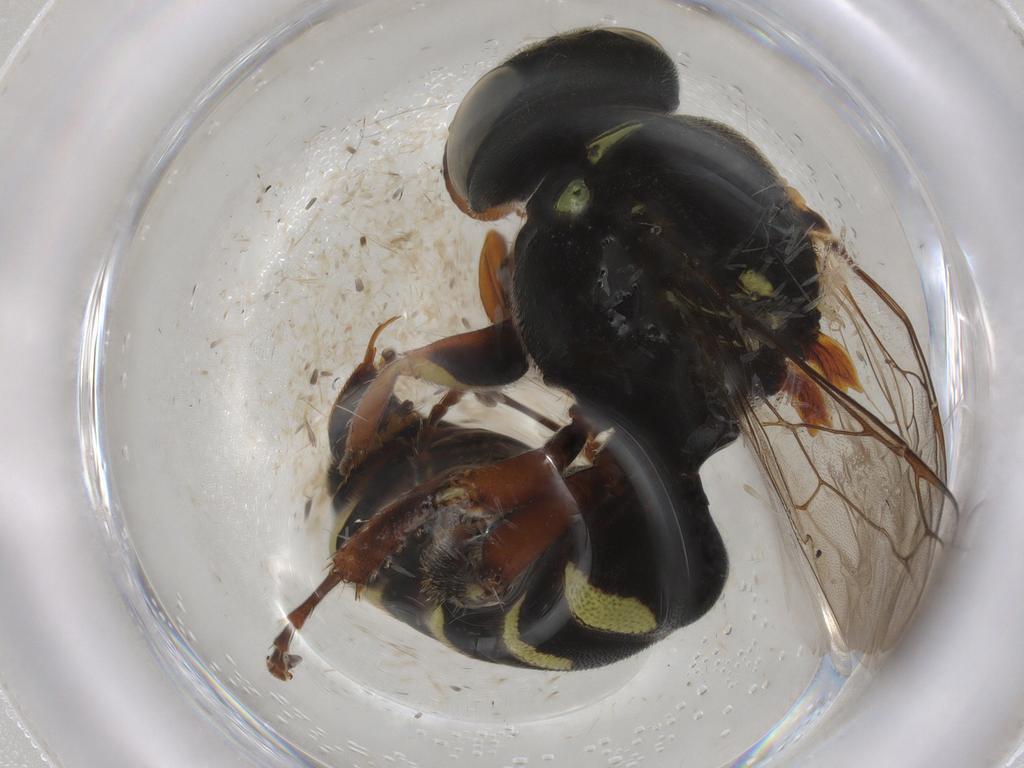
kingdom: Animalia
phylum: Arthropoda
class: Insecta
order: Hymenoptera
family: Crabronidae
